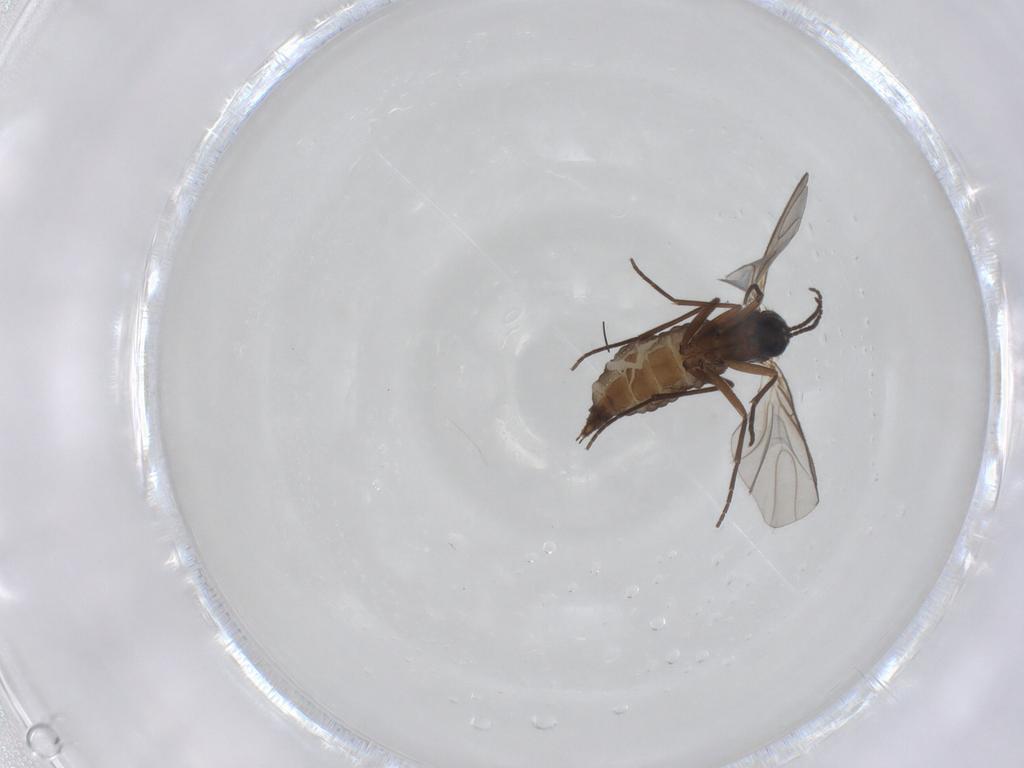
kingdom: Animalia
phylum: Arthropoda
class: Insecta
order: Diptera
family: Sciaridae
